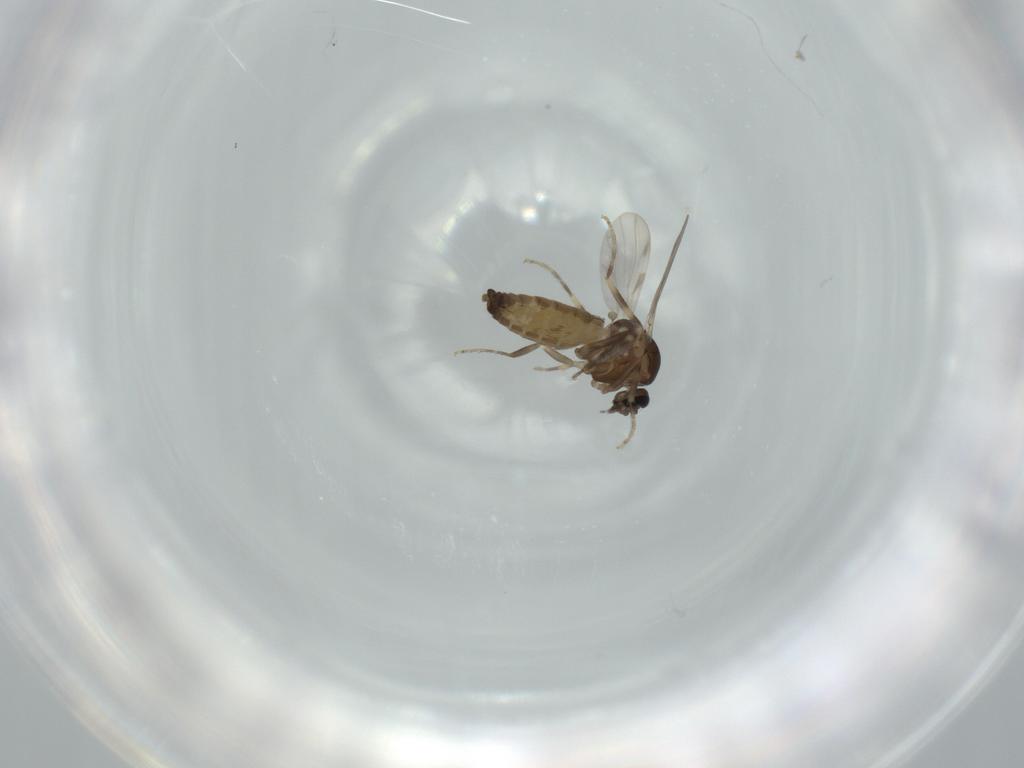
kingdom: Animalia
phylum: Arthropoda
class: Insecta
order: Diptera
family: Ceratopogonidae
